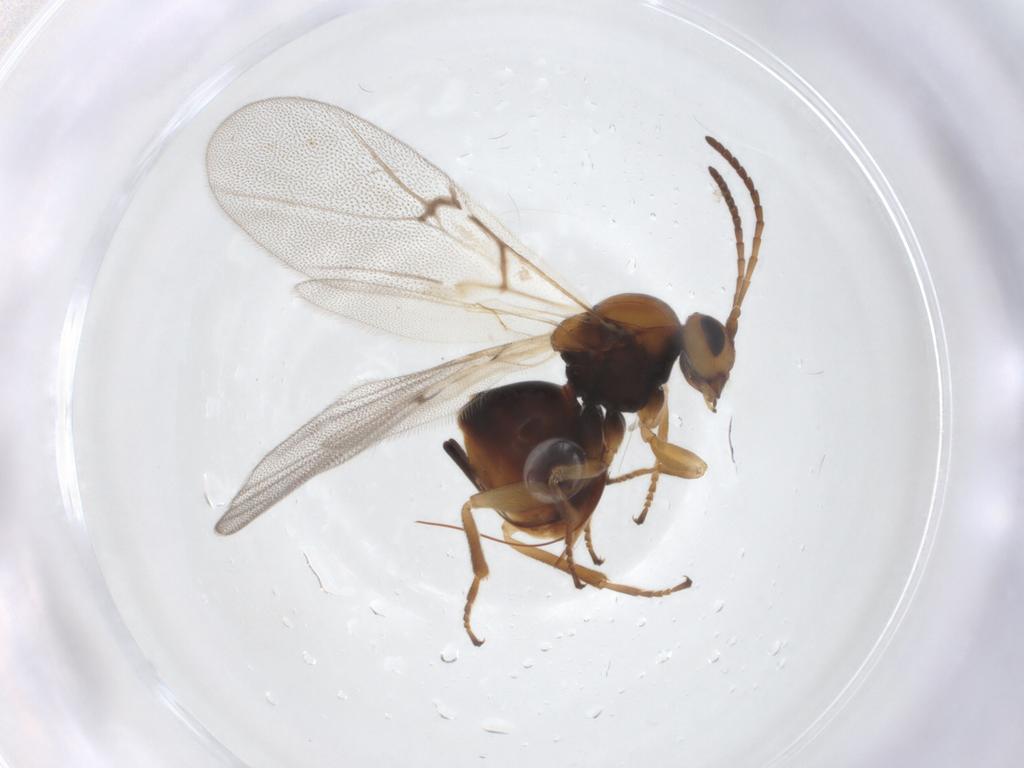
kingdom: Animalia
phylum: Arthropoda
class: Insecta
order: Hymenoptera
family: Cynipidae
